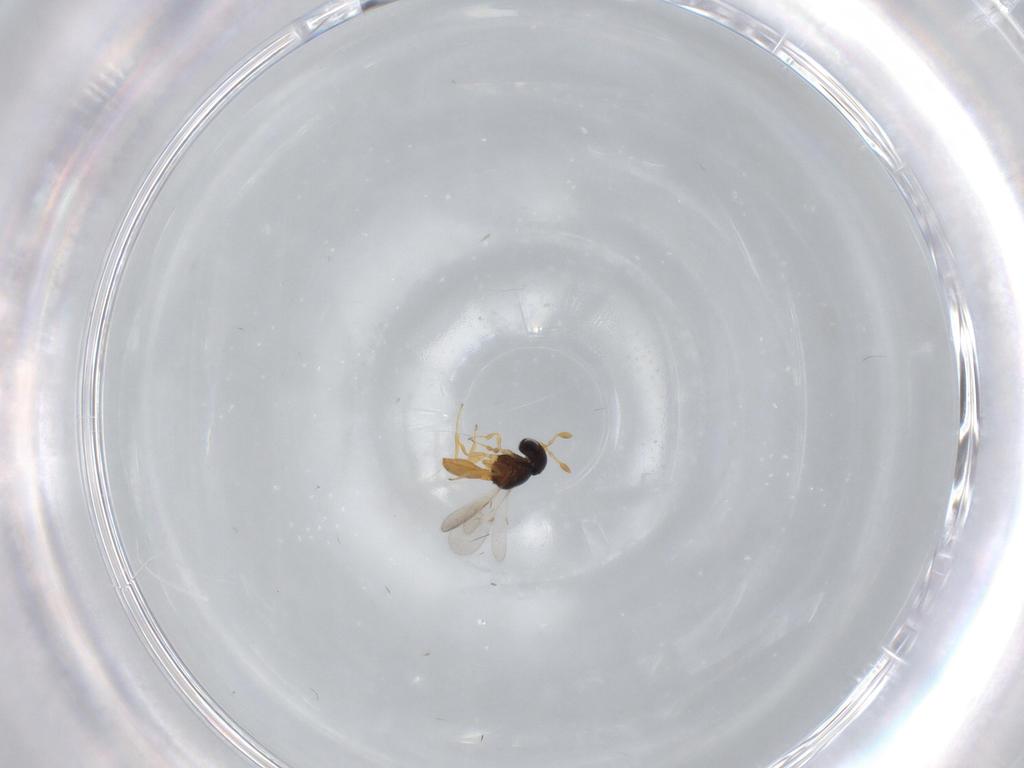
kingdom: Animalia
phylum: Arthropoda
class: Insecta
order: Hymenoptera
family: Scelionidae
